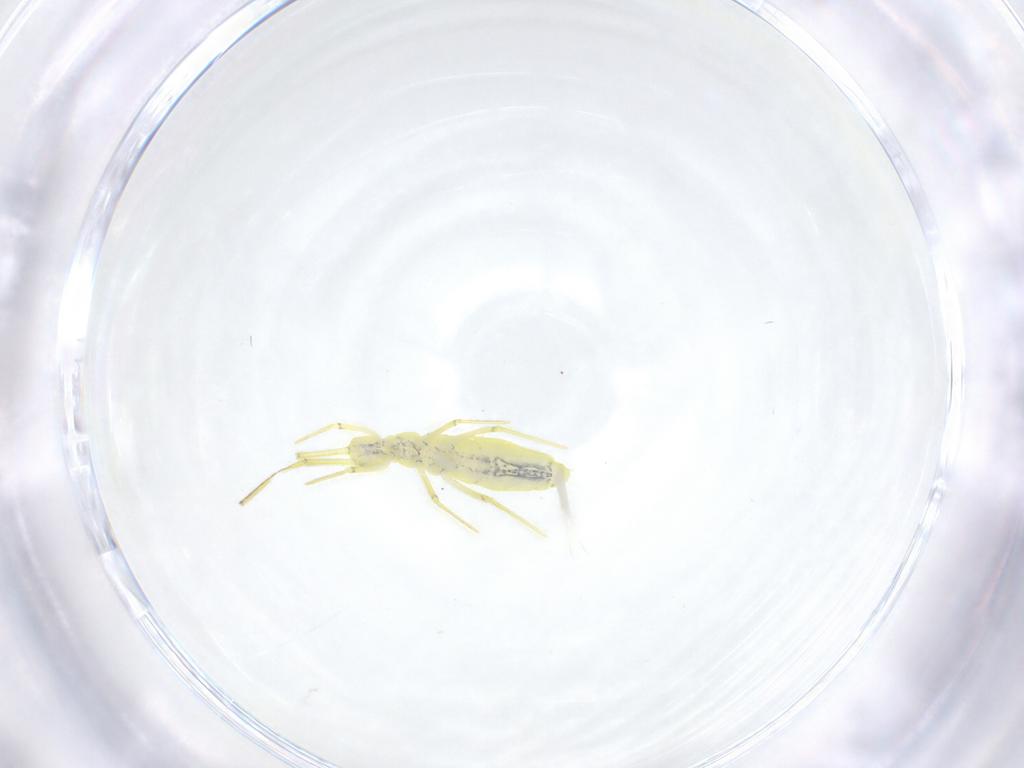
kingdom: Animalia
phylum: Arthropoda
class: Collembola
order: Entomobryomorpha
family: Entomobryidae
